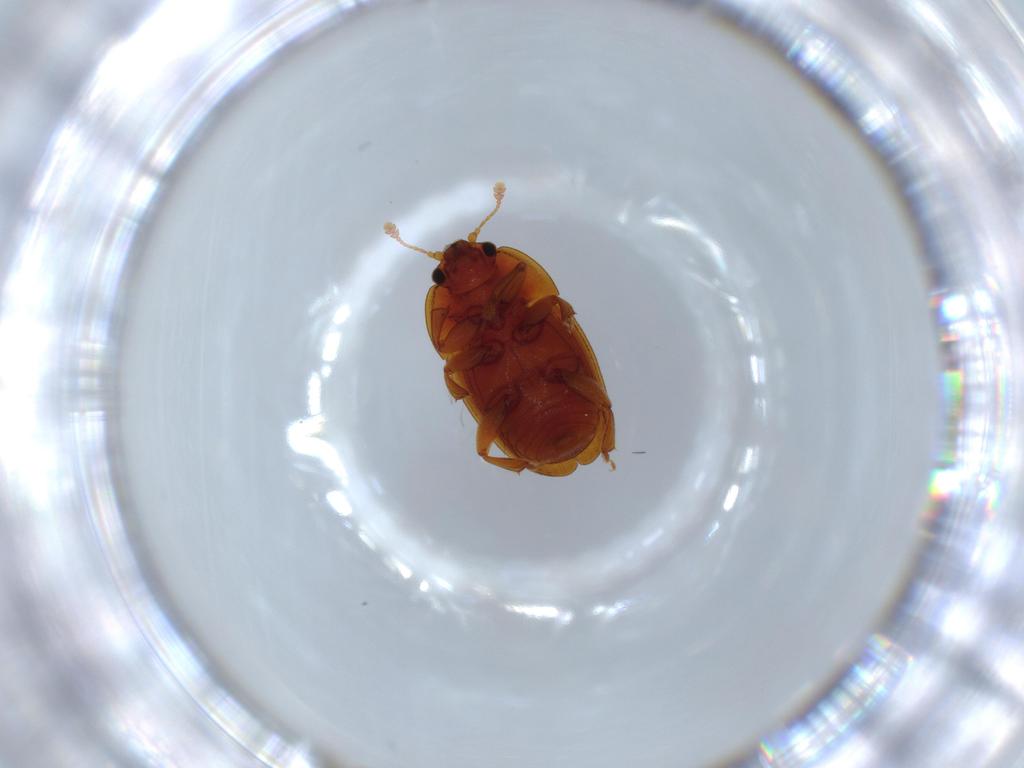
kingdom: Animalia
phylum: Arthropoda
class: Insecta
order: Coleoptera
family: Nitidulidae
